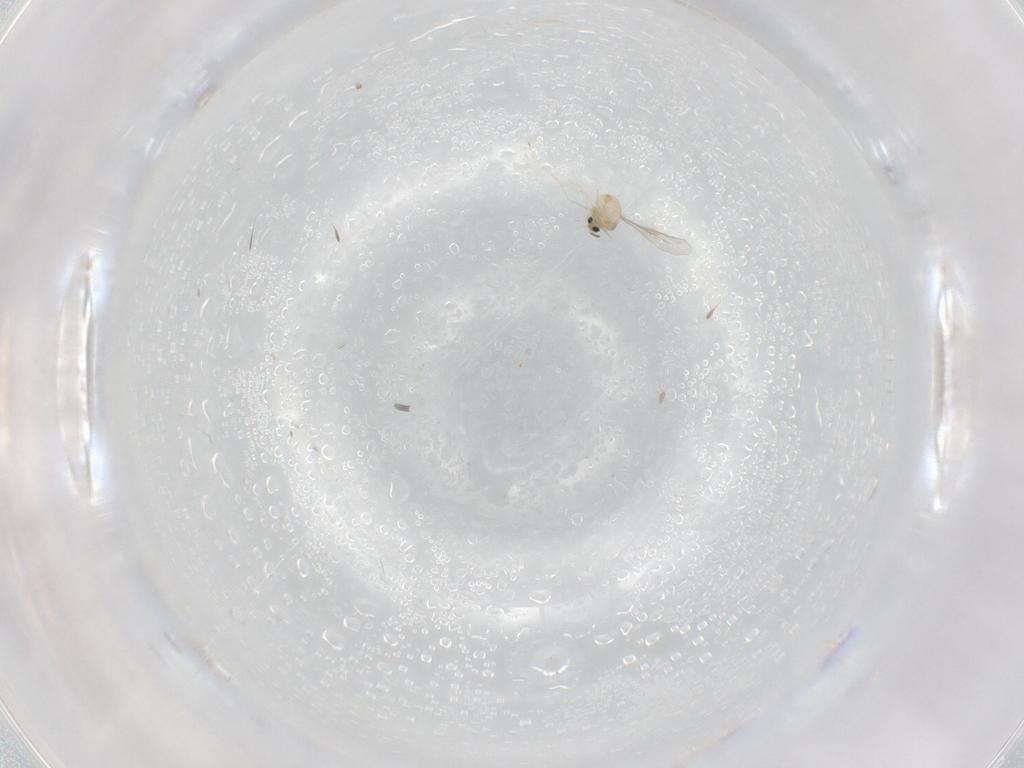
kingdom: Animalia
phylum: Arthropoda
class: Insecta
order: Diptera
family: Cecidomyiidae
